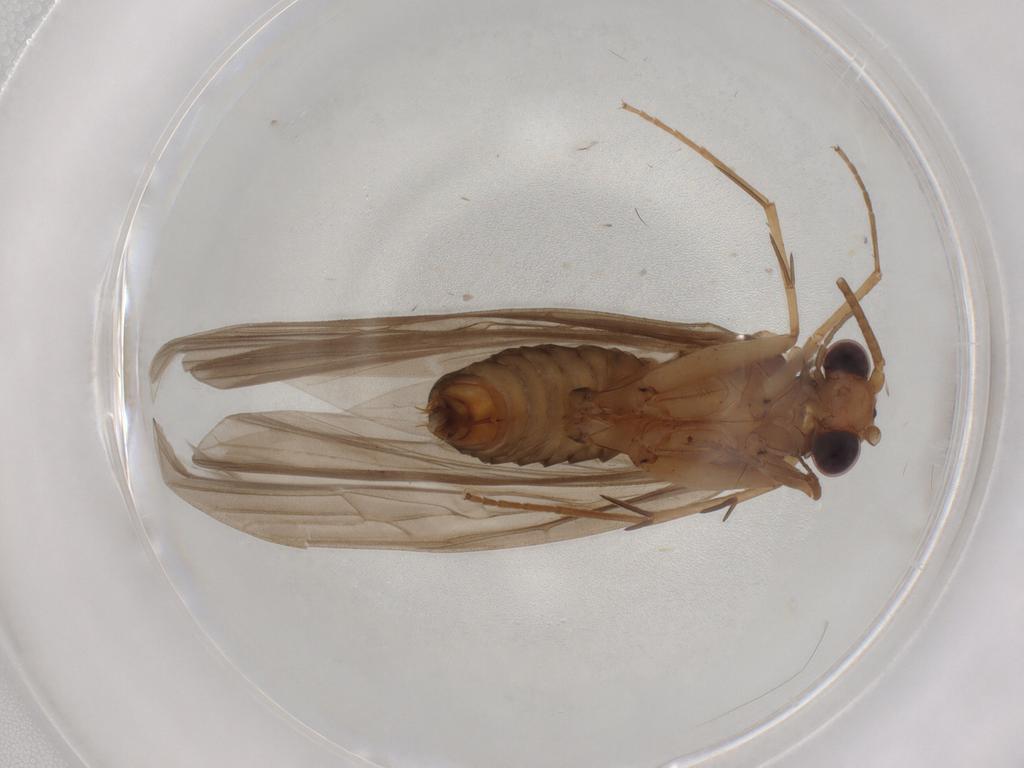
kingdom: Animalia
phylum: Arthropoda
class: Insecta
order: Trichoptera
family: Philopotamidae
